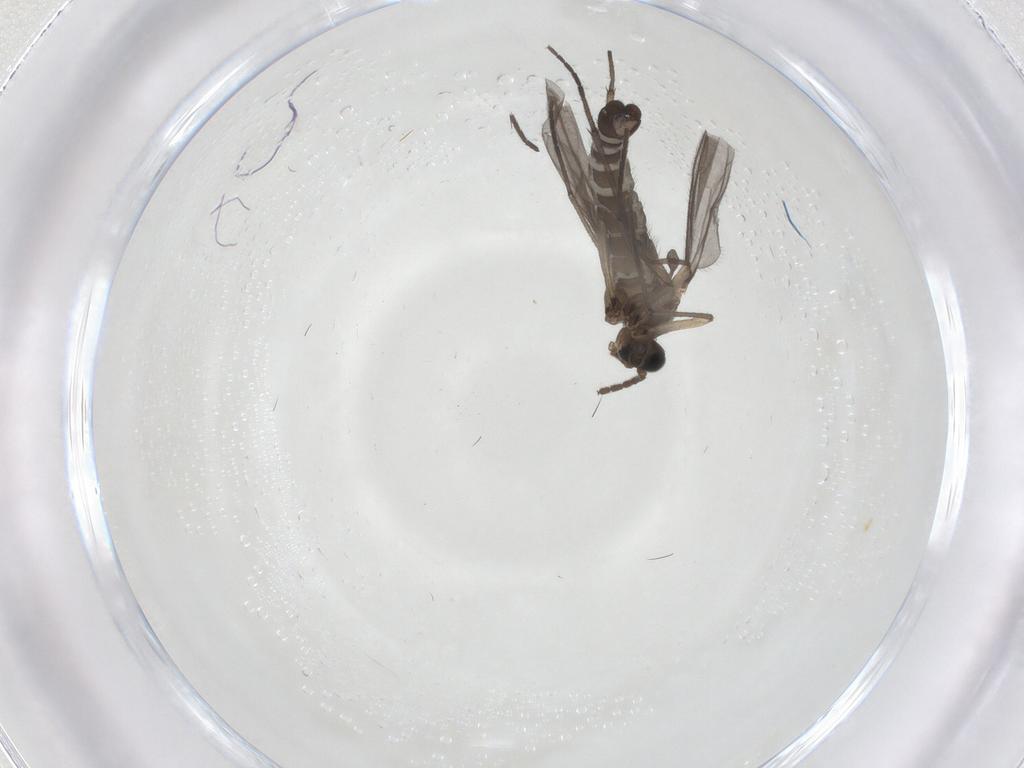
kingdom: Animalia
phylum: Arthropoda
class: Insecta
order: Diptera
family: Sciaridae
